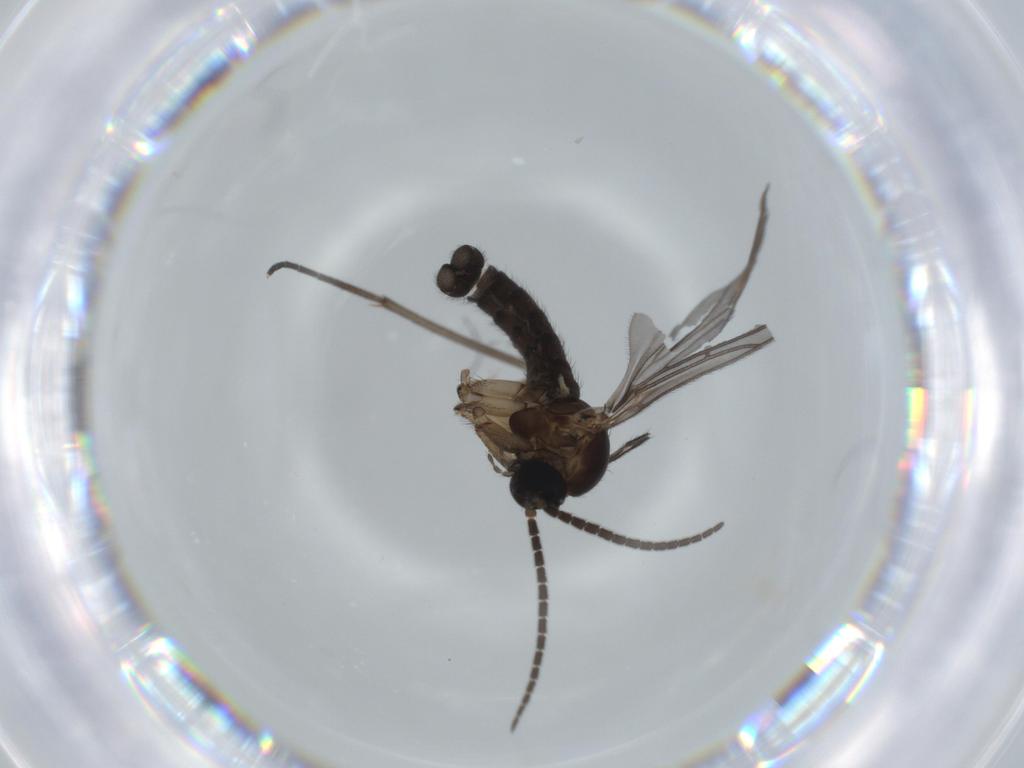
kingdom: Animalia
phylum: Arthropoda
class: Insecta
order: Diptera
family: Sciaridae
